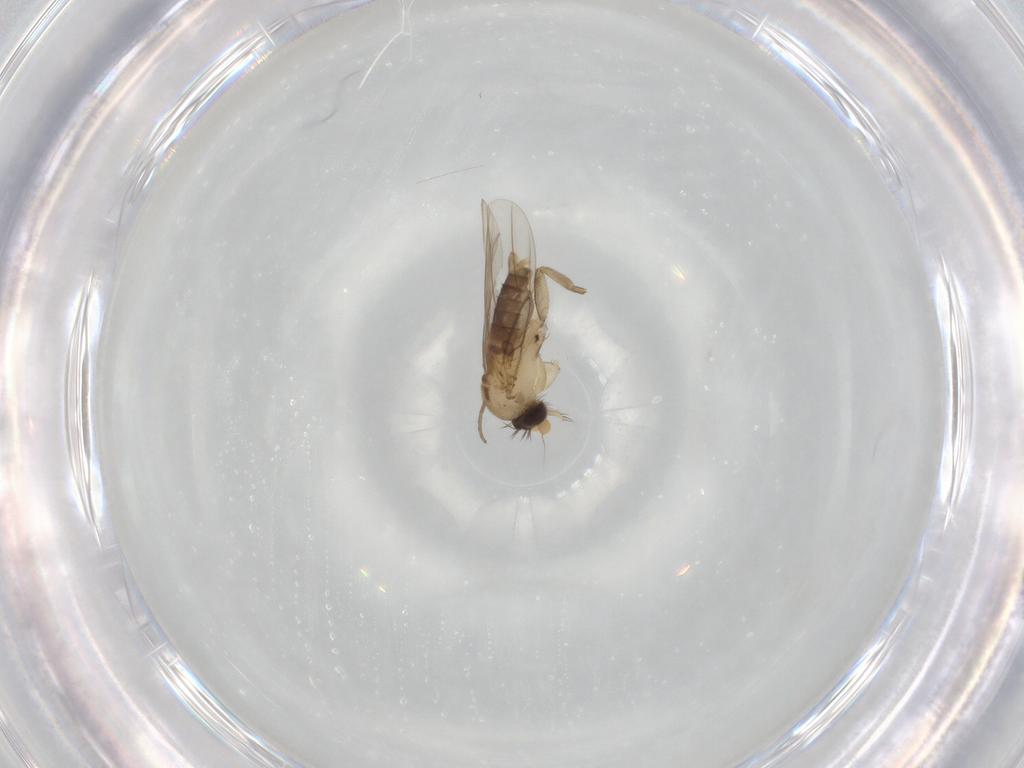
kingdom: Animalia
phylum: Arthropoda
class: Insecta
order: Diptera
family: Phoridae
